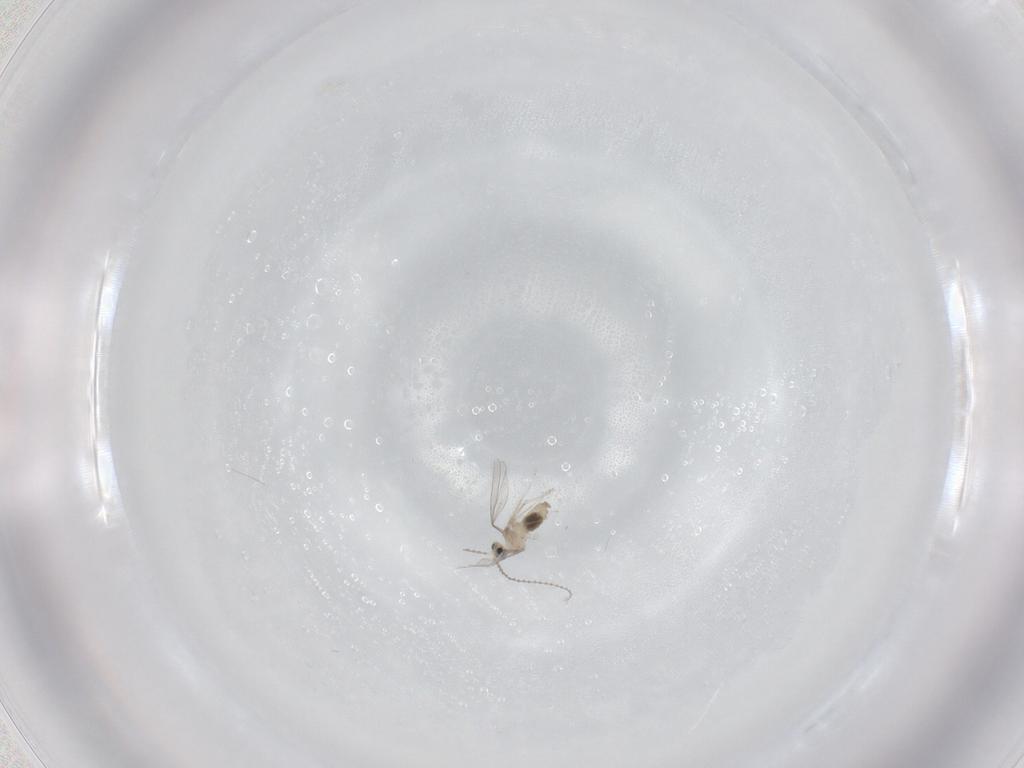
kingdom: Animalia
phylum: Arthropoda
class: Insecta
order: Diptera
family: Cecidomyiidae
